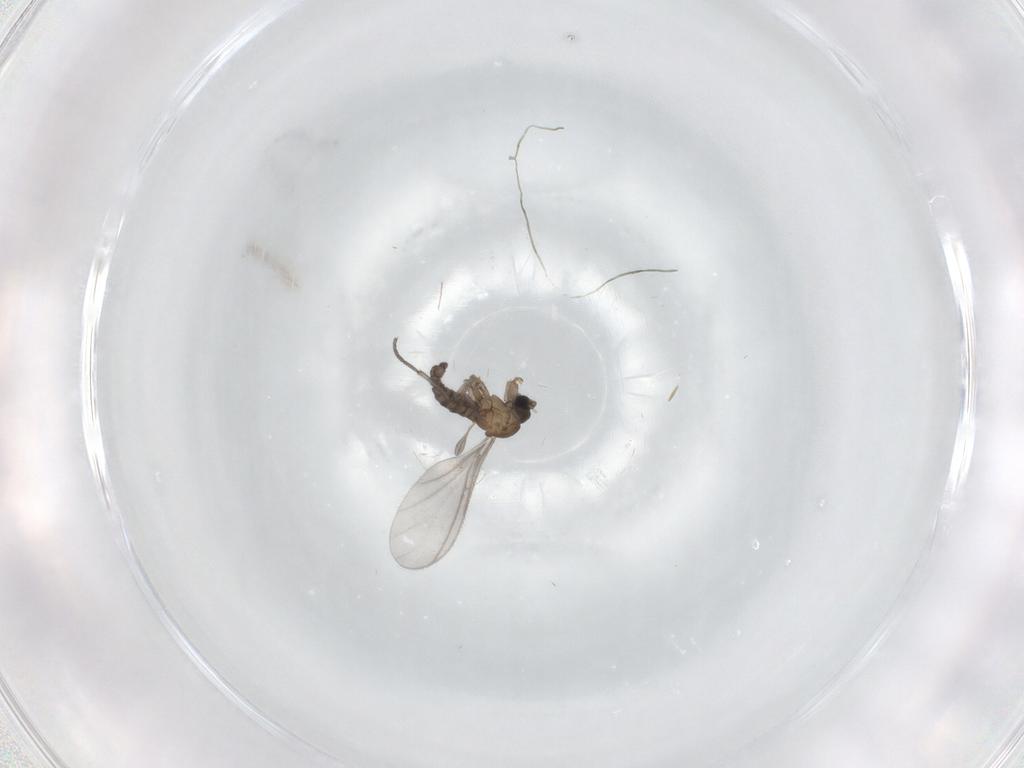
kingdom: Animalia
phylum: Arthropoda
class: Insecta
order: Diptera
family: Sciaridae
